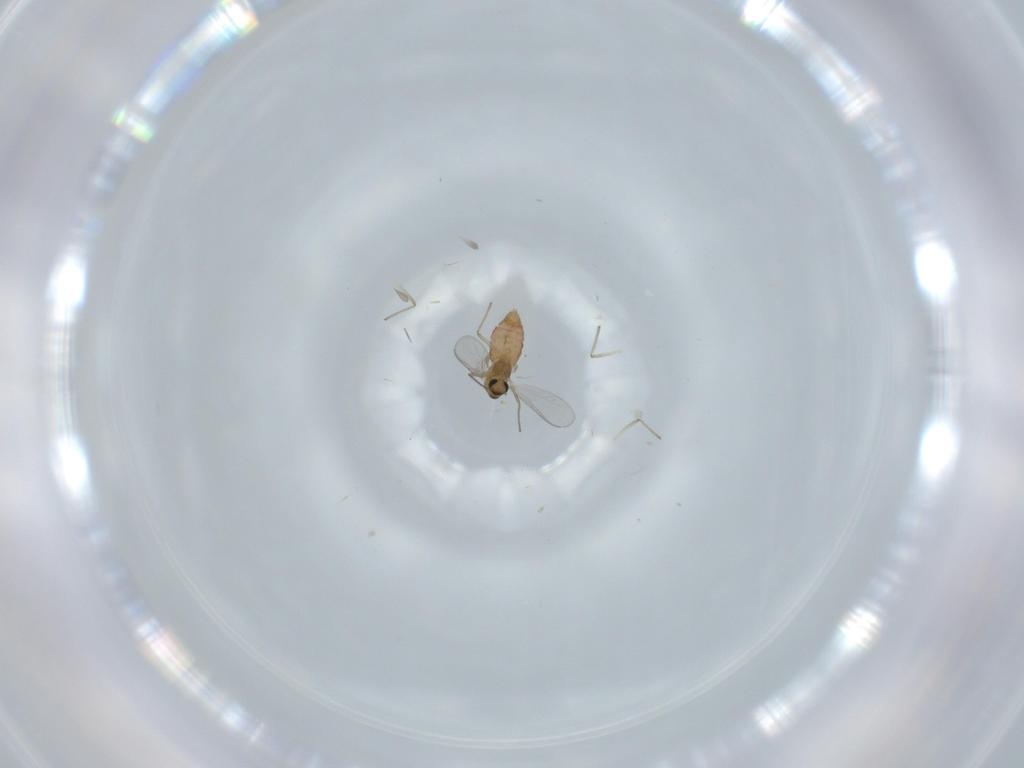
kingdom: Animalia
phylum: Arthropoda
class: Insecta
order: Diptera
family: Chironomidae
